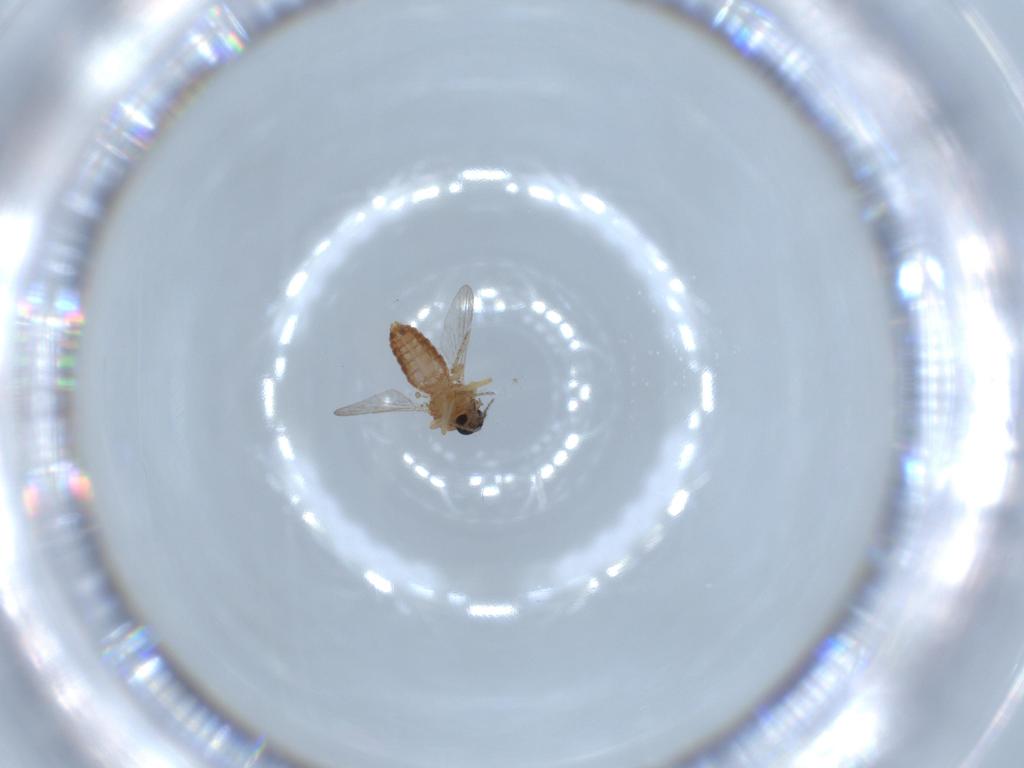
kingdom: Animalia
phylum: Arthropoda
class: Insecta
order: Diptera
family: Ceratopogonidae
